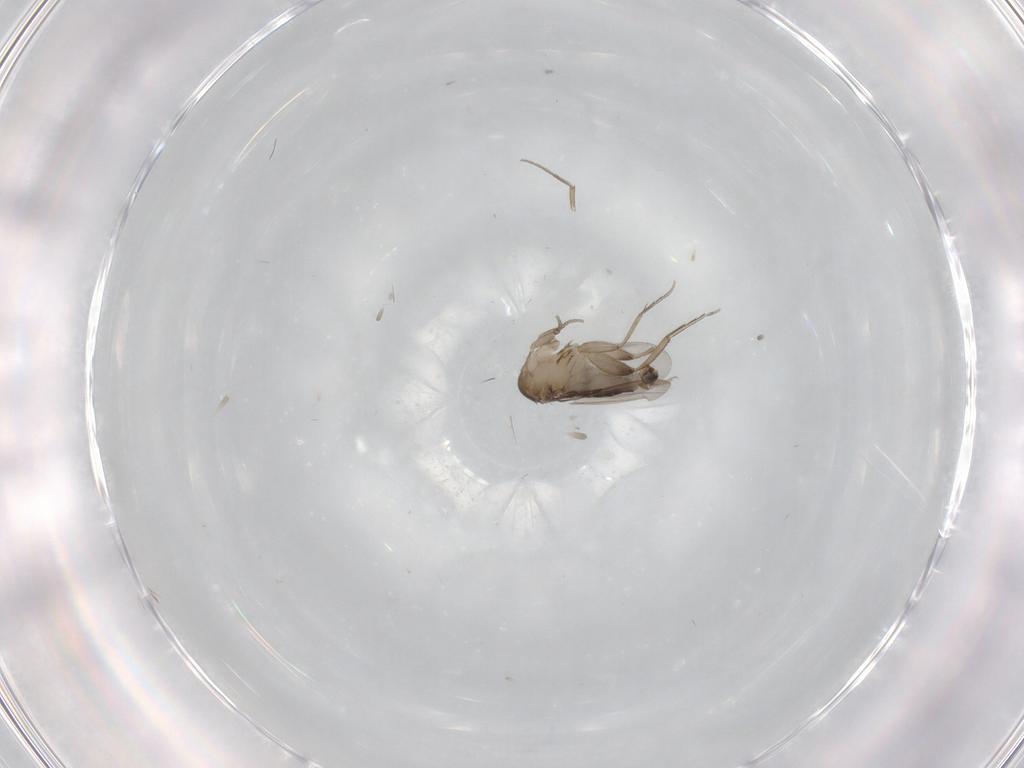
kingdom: Animalia
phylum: Arthropoda
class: Insecta
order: Diptera
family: Phoridae
